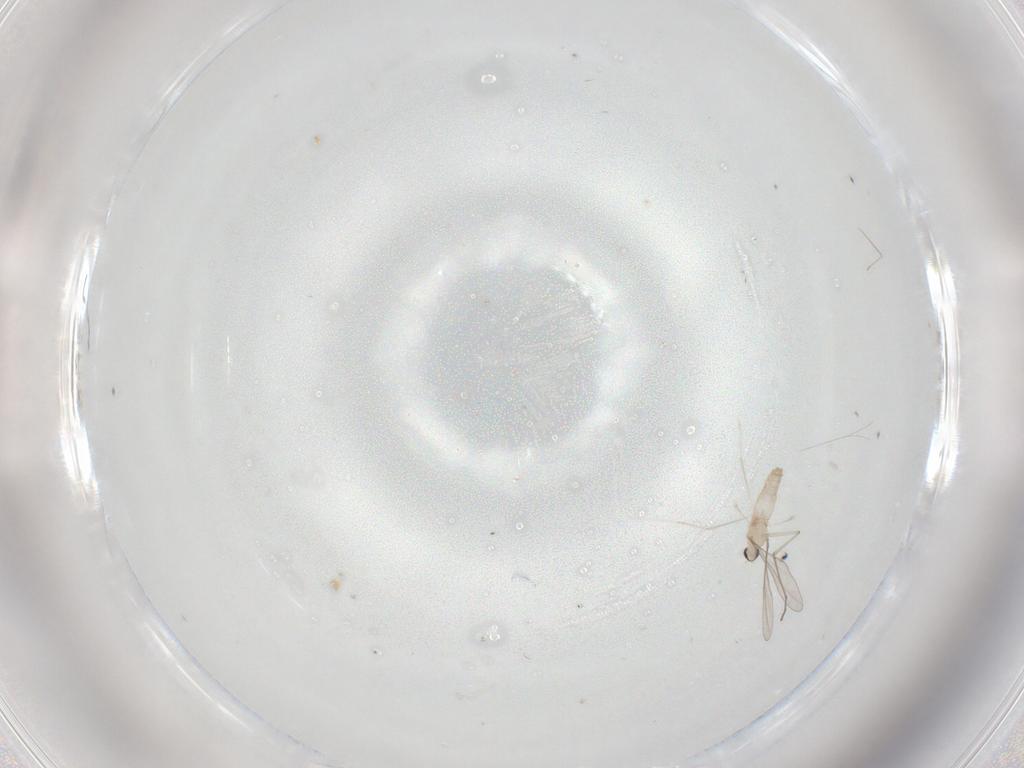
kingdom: Animalia
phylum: Arthropoda
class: Insecta
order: Diptera
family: Cecidomyiidae
